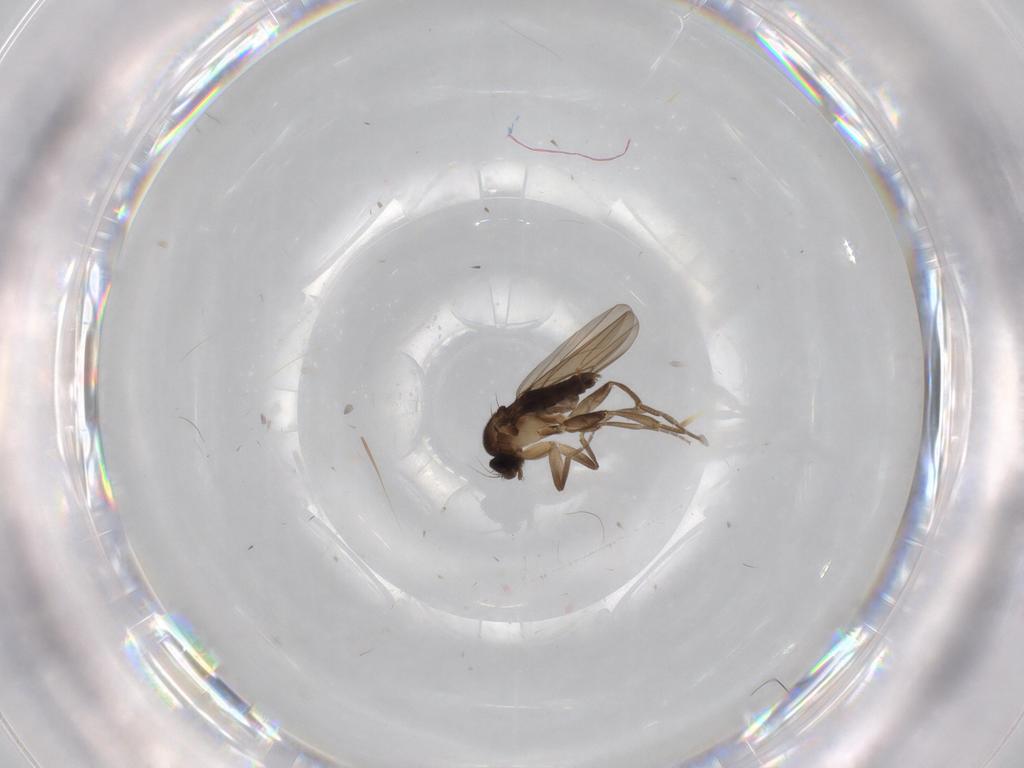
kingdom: Animalia
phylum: Arthropoda
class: Insecta
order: Diptera
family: Phoridae
